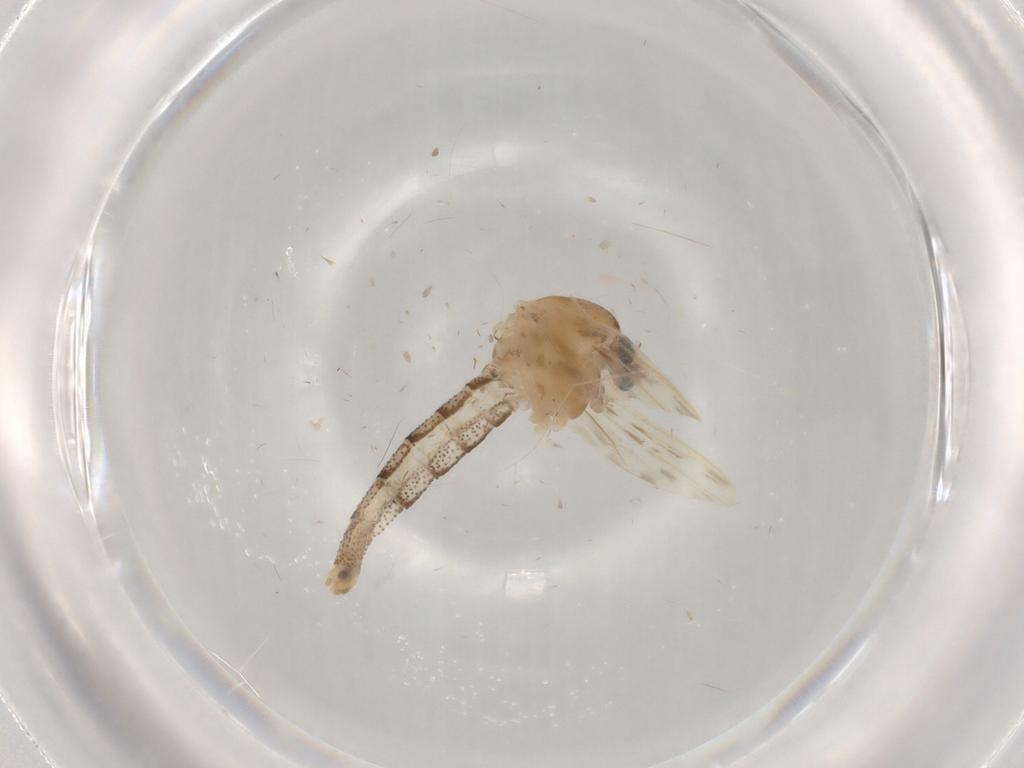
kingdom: Animalia
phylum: Arthropoda
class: Insecta
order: Diptera
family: Chaoboridae
